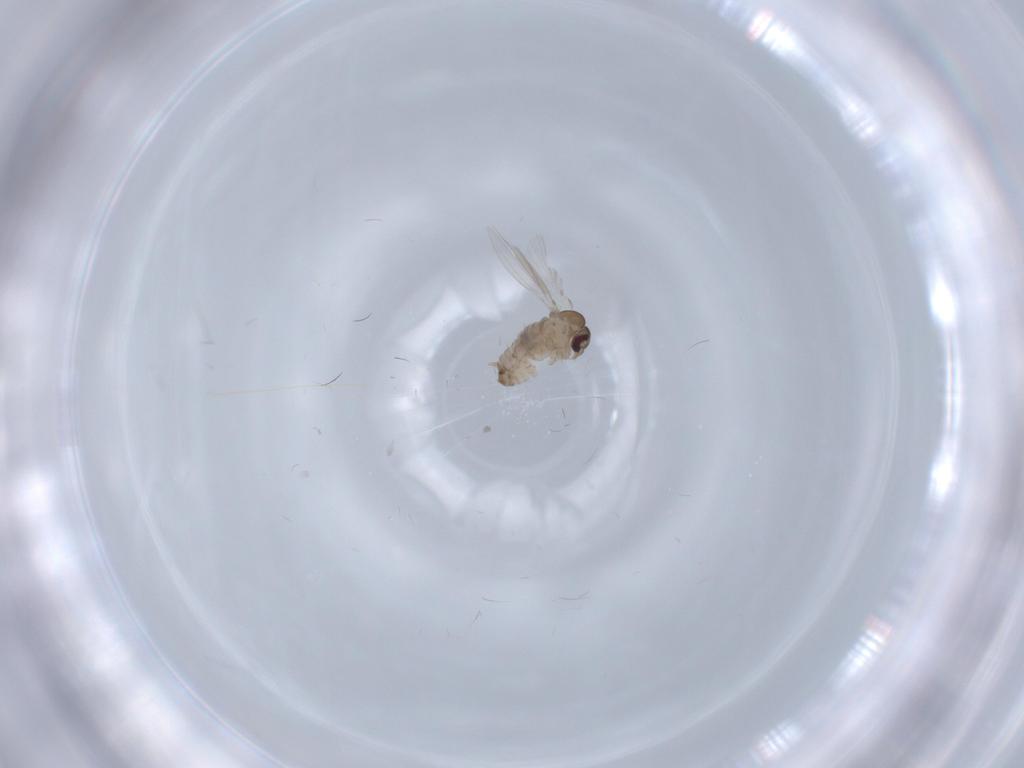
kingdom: Animalia
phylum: Arthropoda
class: Insecta
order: Diptera
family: Psychodidae
